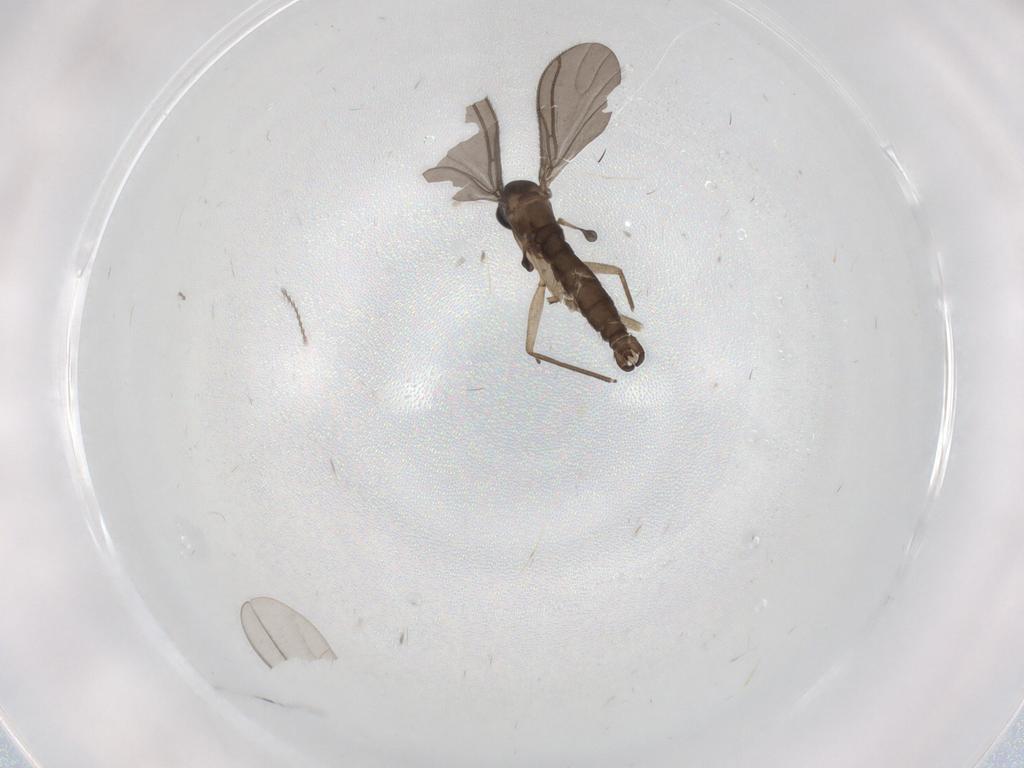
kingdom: Animalia
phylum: Arthropoda
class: Insecta
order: Diptera
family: Sciaridae
